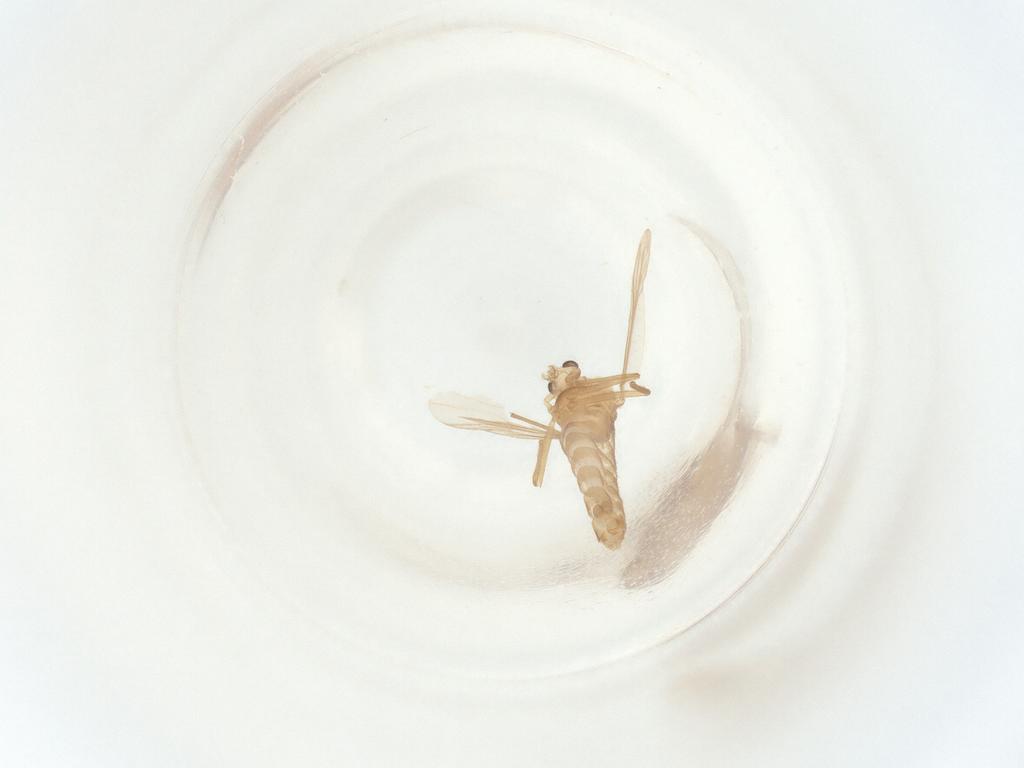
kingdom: Animalia
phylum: Arthropoda
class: Insecta
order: Diptera
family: Chironomidae
